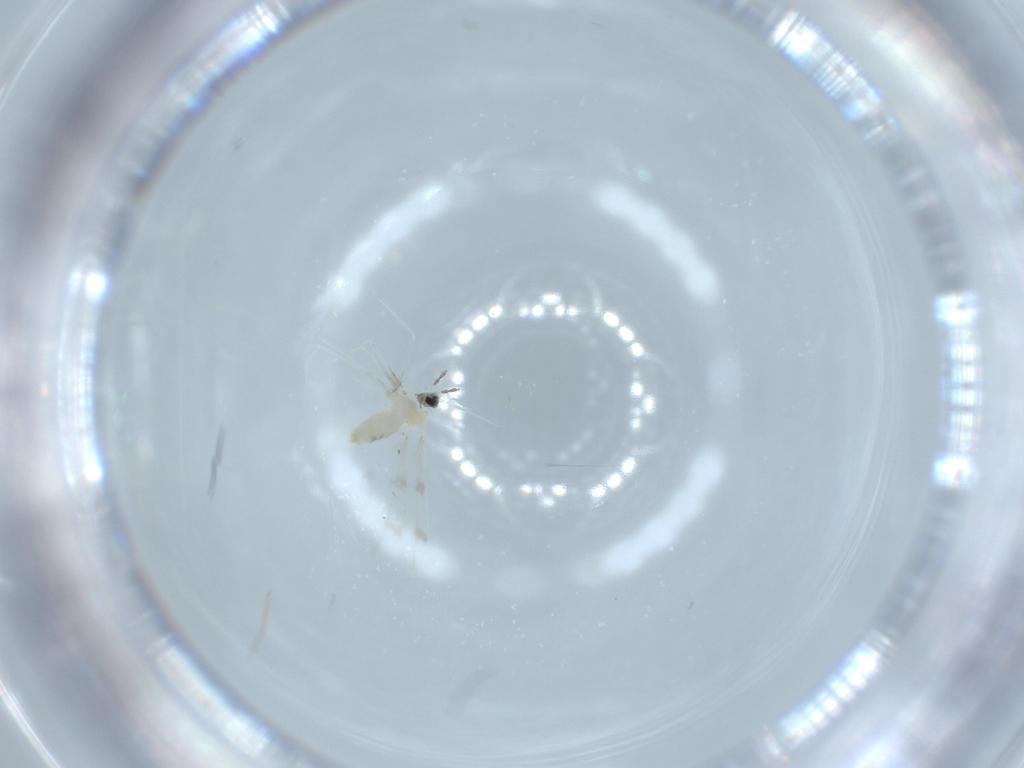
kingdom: Animalia
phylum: Arthropoda
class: Insecta
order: Diptera
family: Cecidomyiidae
